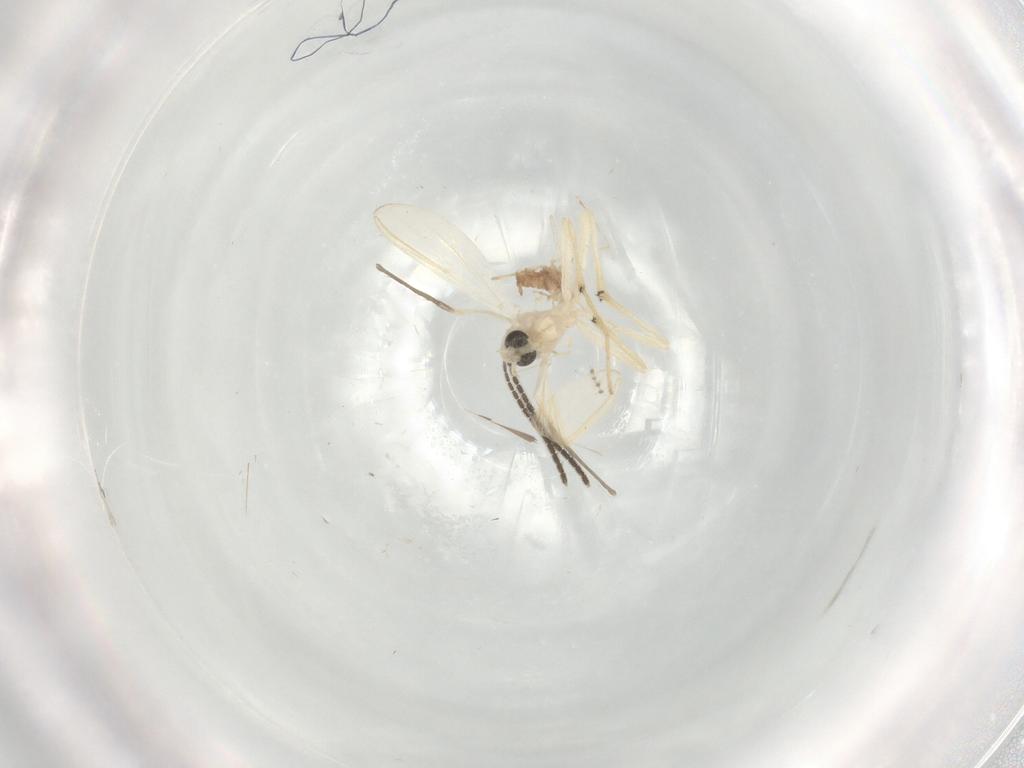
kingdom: Animalia
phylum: Arthropoda
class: Insecta
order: Diptera
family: Sciaridae
